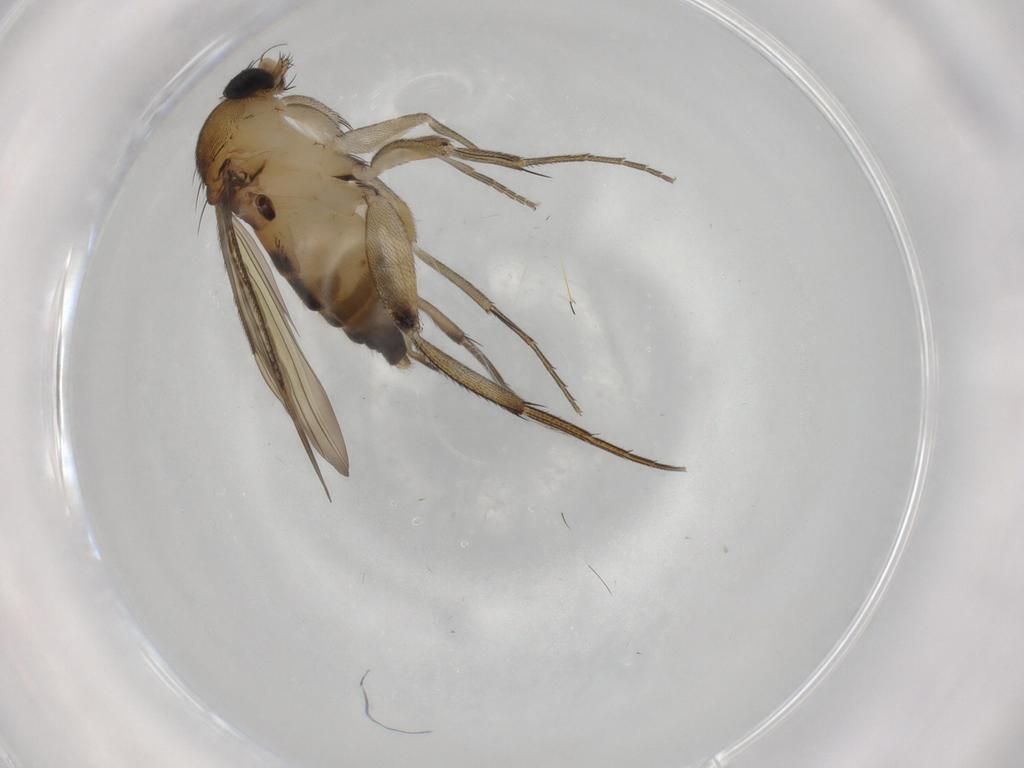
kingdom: Animalia
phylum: Arthropoda
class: Insecta
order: Diptera
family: Phoridae
